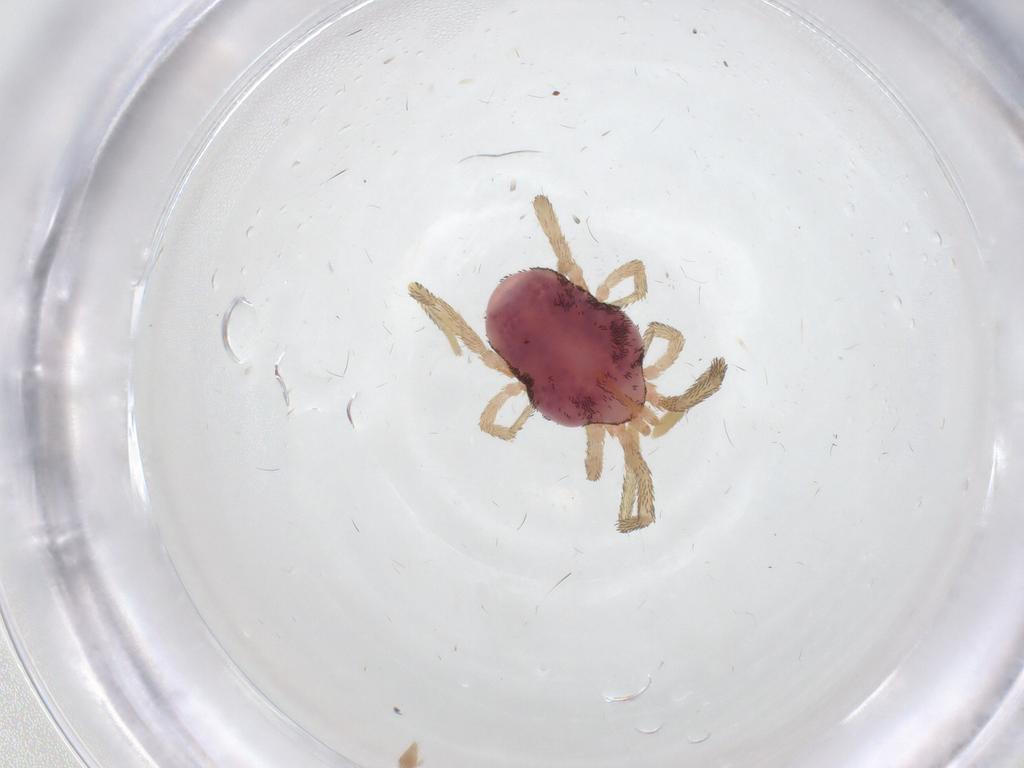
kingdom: Animalia
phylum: Arthropoda
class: Arachnida
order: Trombidiformes
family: Erythraeidae
